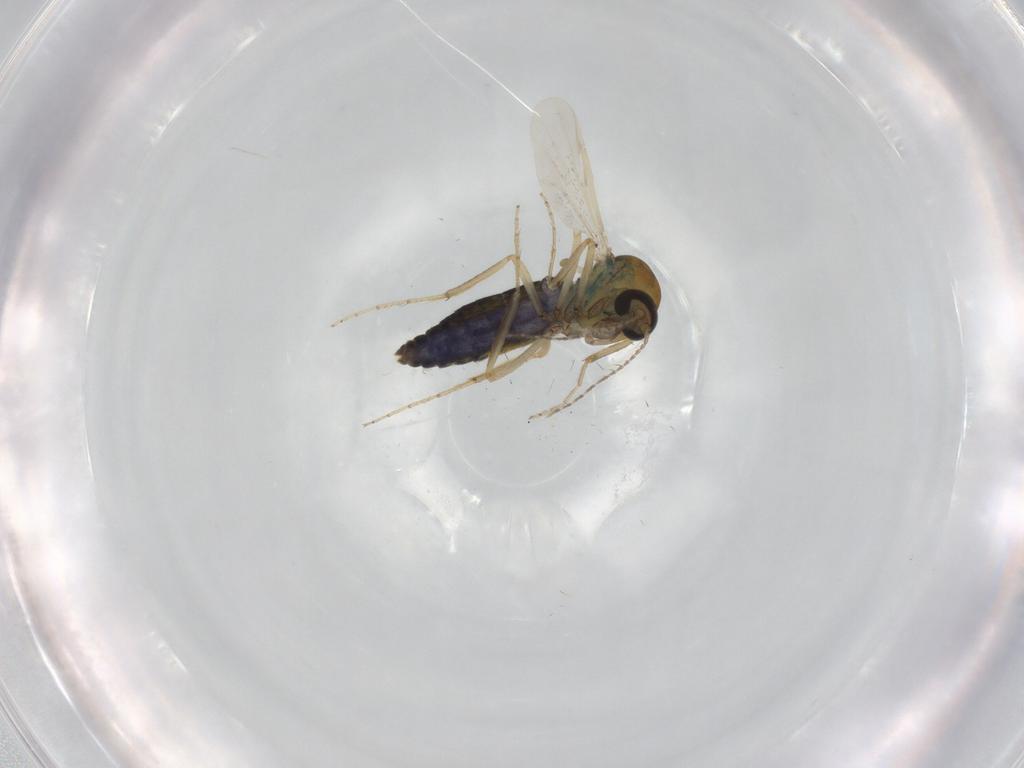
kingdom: Animalia
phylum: Arthropoda
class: Insecta
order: Diptera
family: Ceratopogonidae
